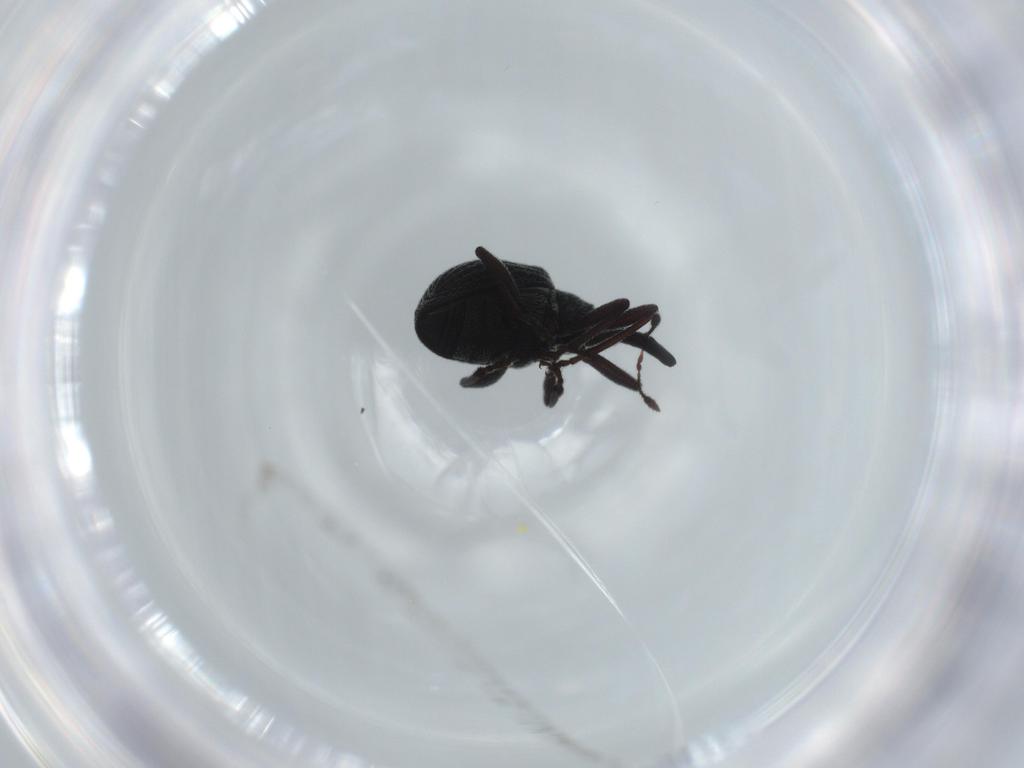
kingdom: Animalia
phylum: Arthropoda
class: Insecta
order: Coleoptera
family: Brentidae
